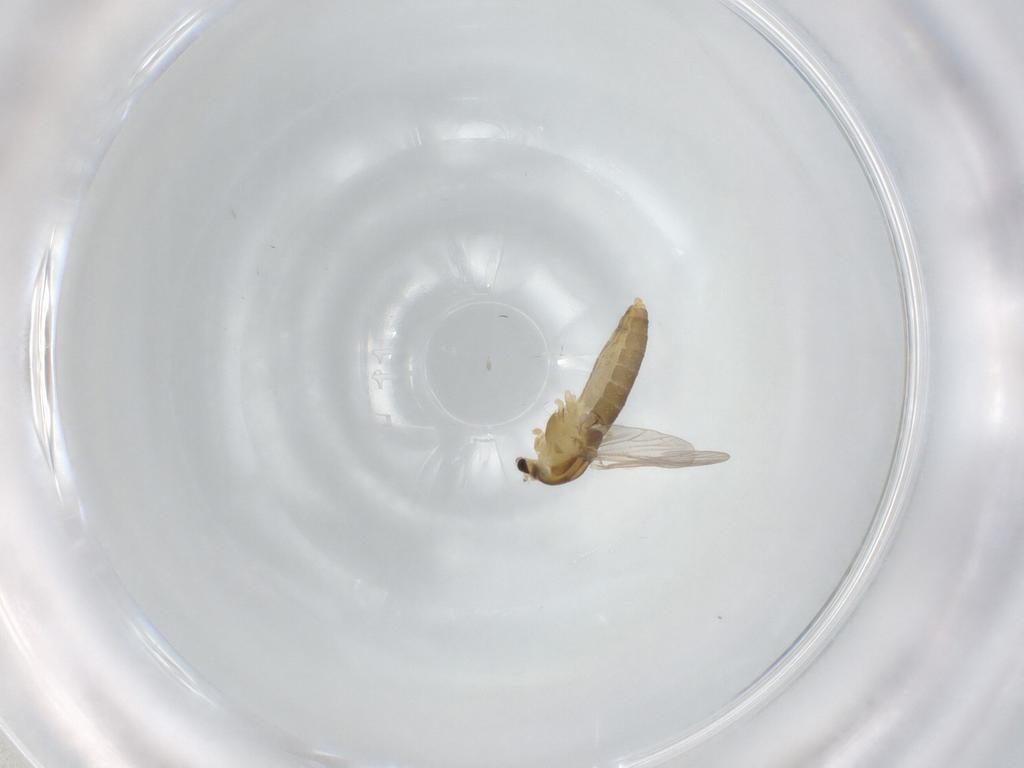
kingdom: Animalia
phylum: Arthropoda
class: Insecta
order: Diptera
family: Chironomidae
